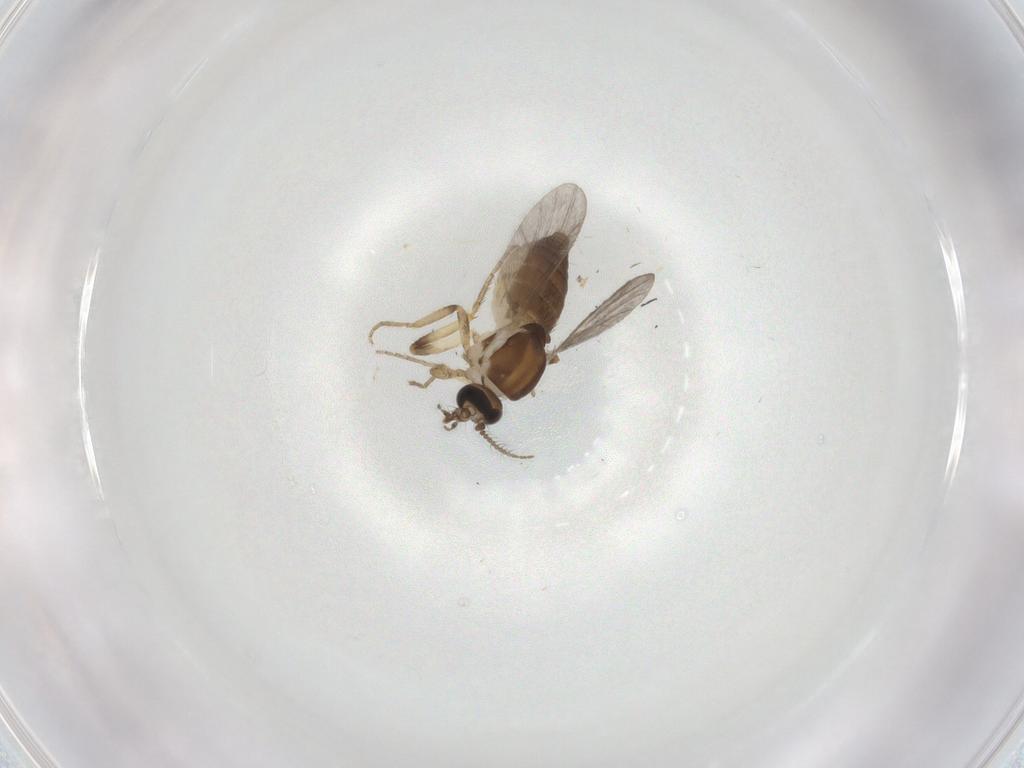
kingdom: Animalia
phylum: Arthropoda
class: Insecta
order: Diptera
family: Ceratopogonidae
